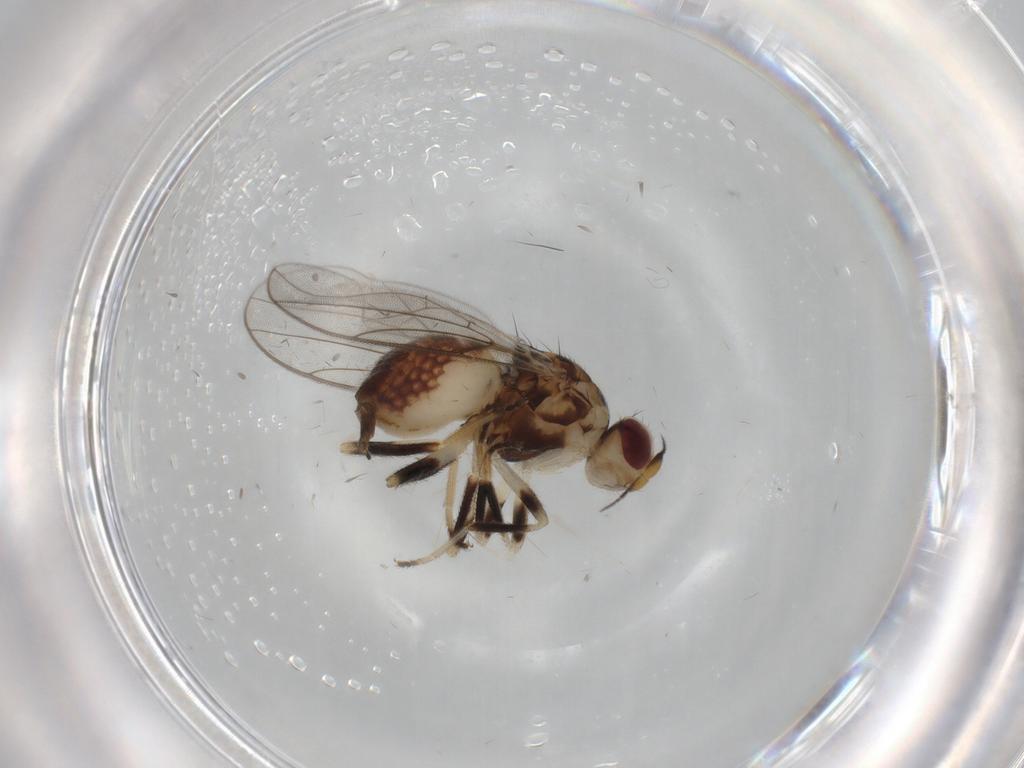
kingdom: Animalia
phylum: Arthropoda
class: Insecta
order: Diptera
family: Chloropidae
